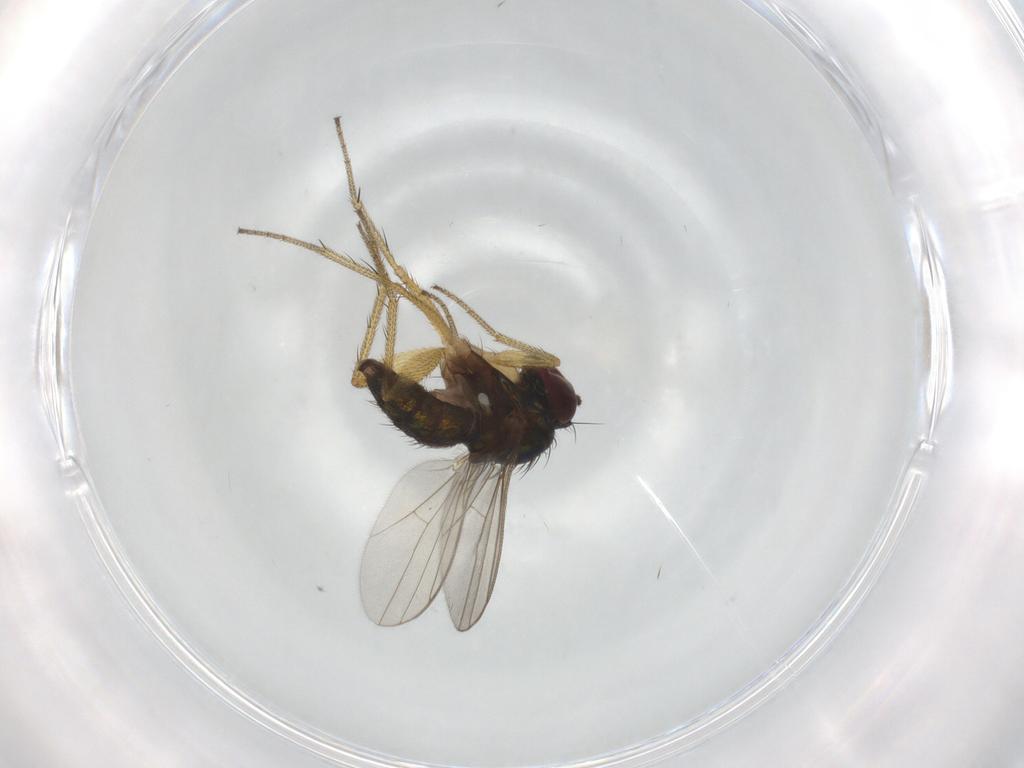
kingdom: Animalia
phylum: Arthropoda
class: Insecta
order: Diptera
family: Dolichopodidae
